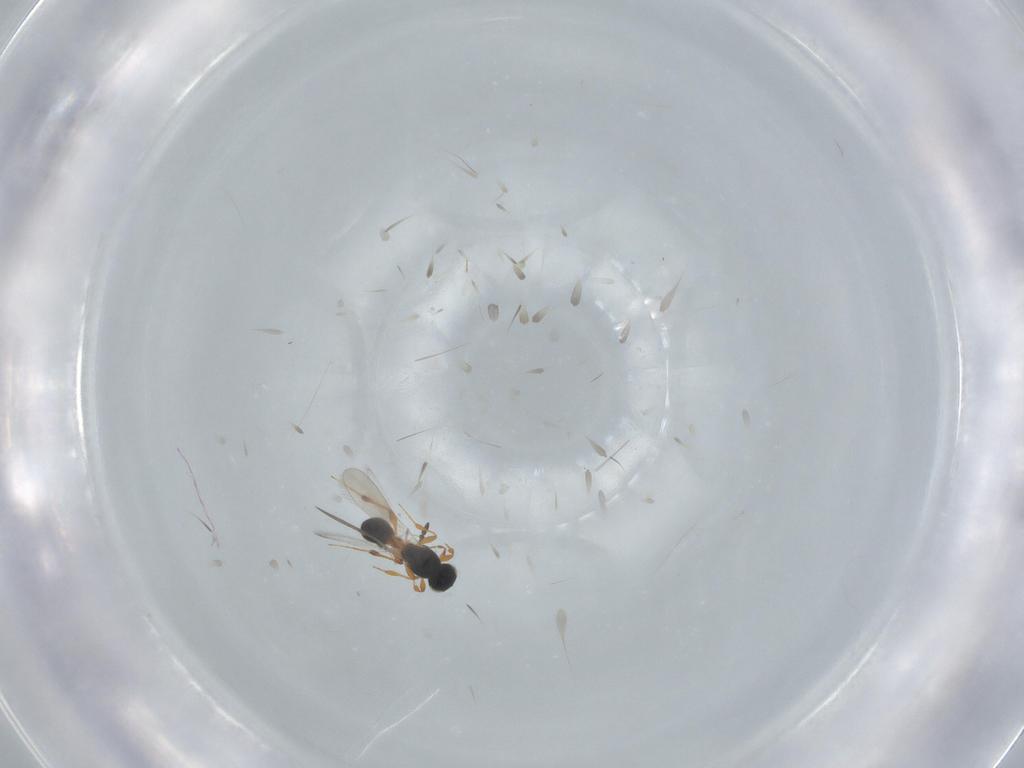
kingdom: Animalia
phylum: Arthropoda
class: Insecta
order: Hymenoptera
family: Platygastridae
